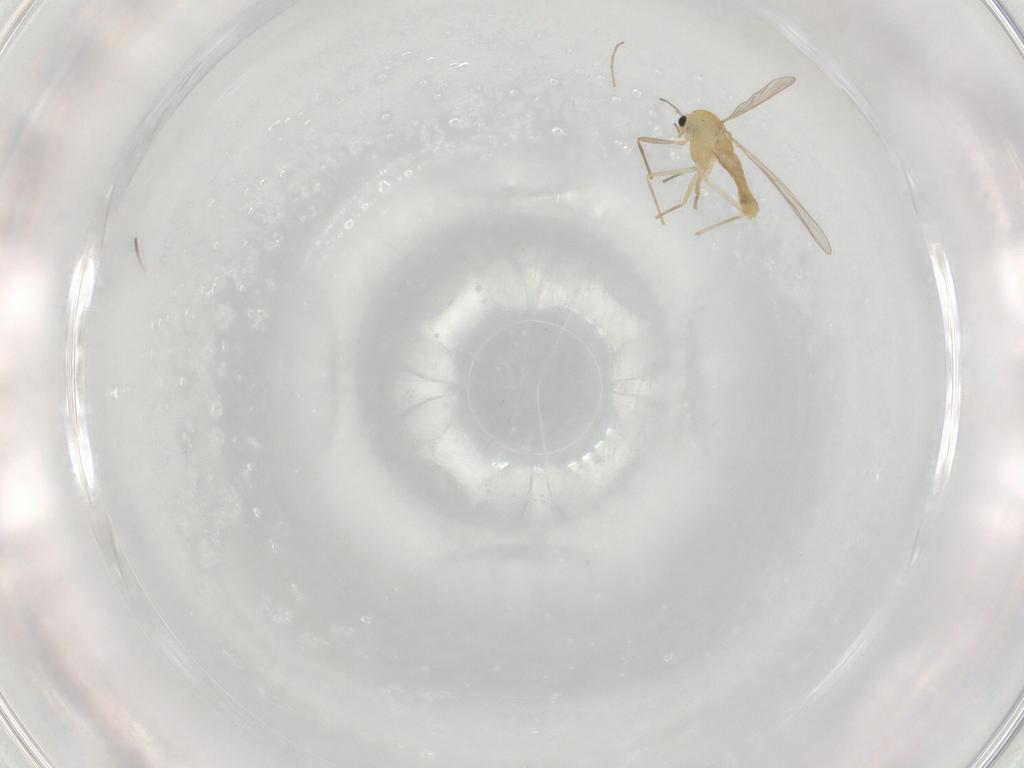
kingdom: Animalia
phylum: Arthropoda
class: Insecta
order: Diptera
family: Chironomidae
